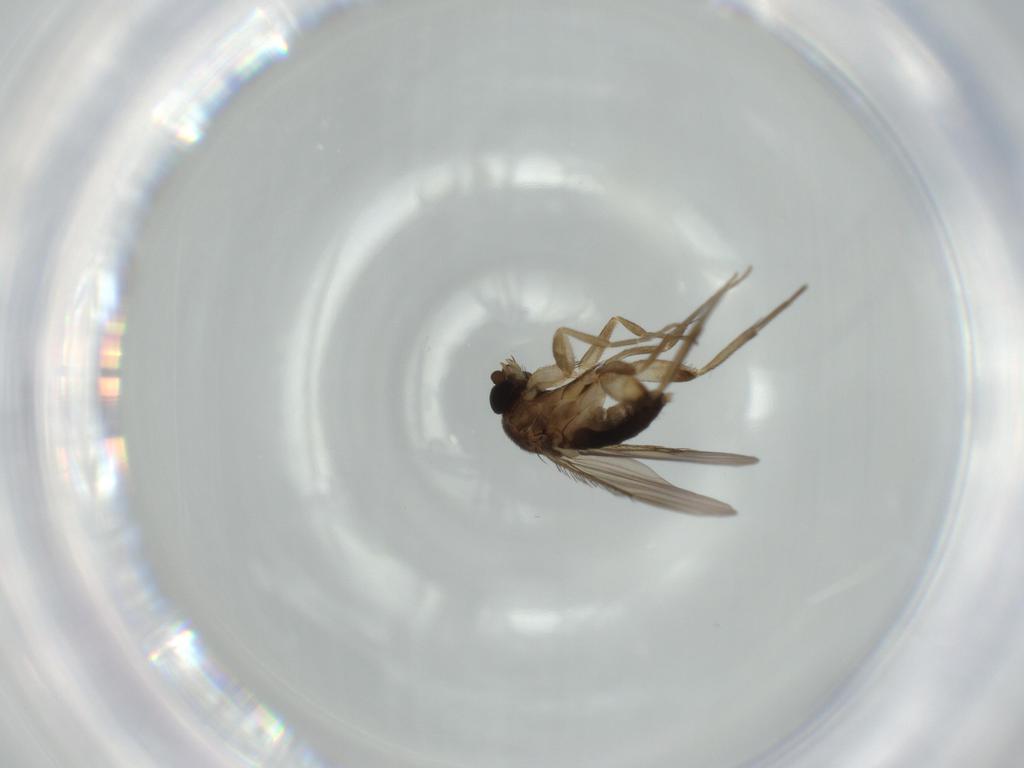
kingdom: Animalia
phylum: Arthropoda
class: Insecta
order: Diptera
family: Phoridae
